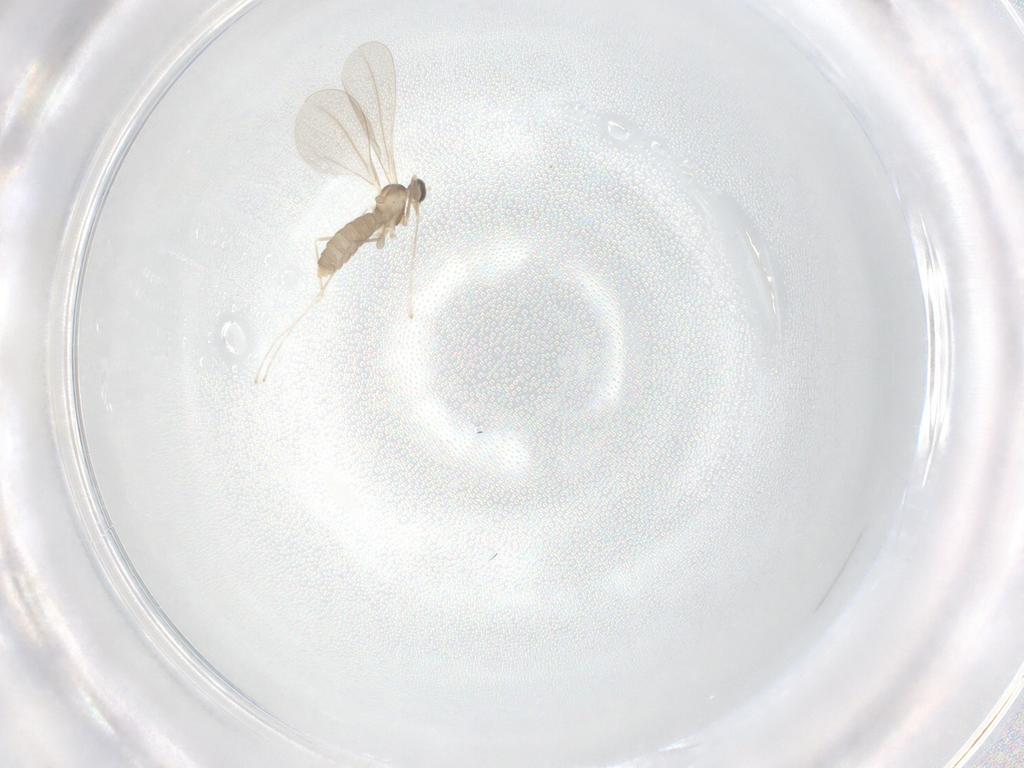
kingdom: Animalia
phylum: Arthropoda
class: Insecta
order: Diptera
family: Cecidomyiidae
